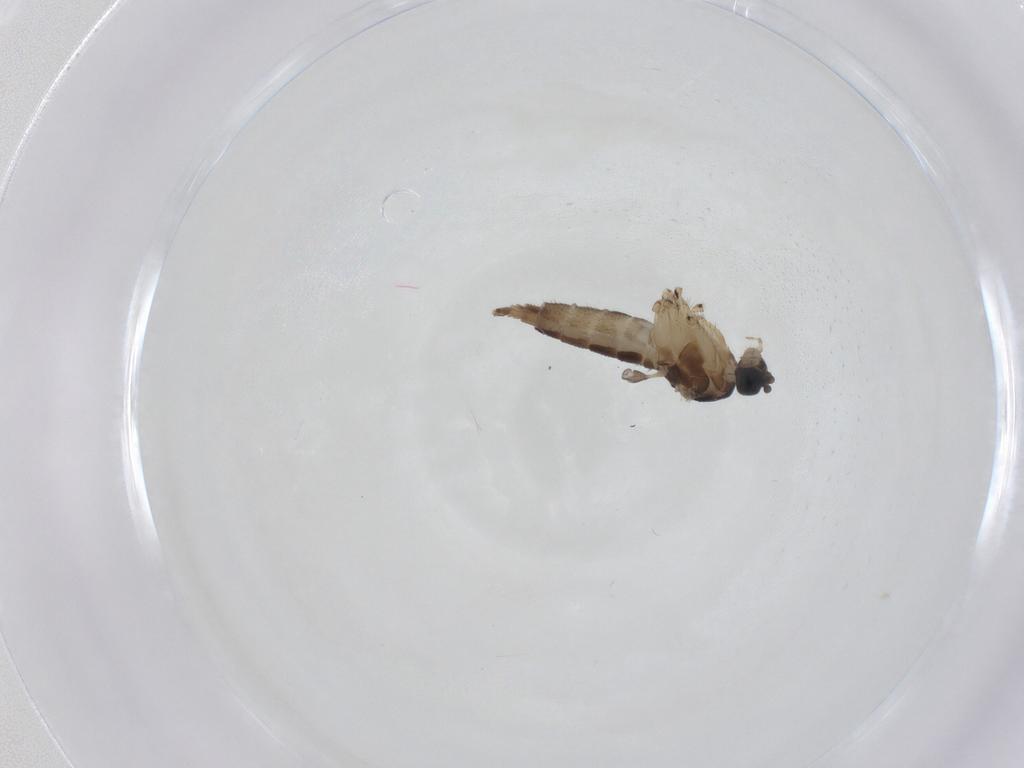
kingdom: Animalia
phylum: Arthropoda
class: Insecta
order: Diptera
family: Sciaridae
